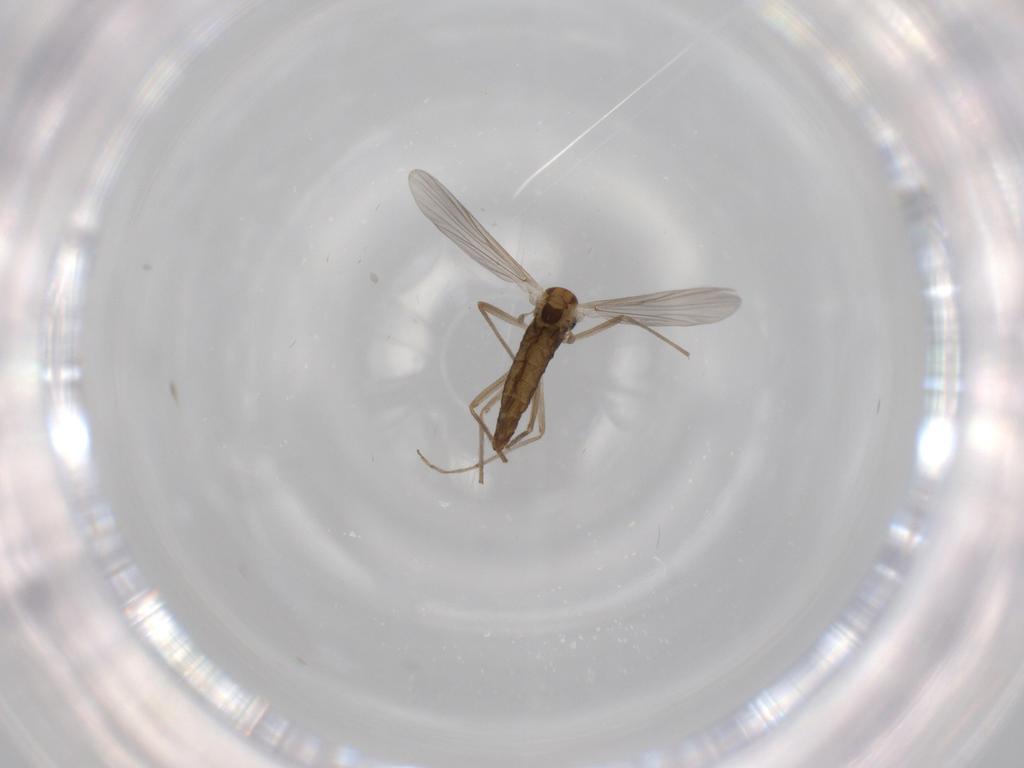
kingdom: Animalia
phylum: Arthropoda
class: Insecta
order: Diptera
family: Chironomidae
